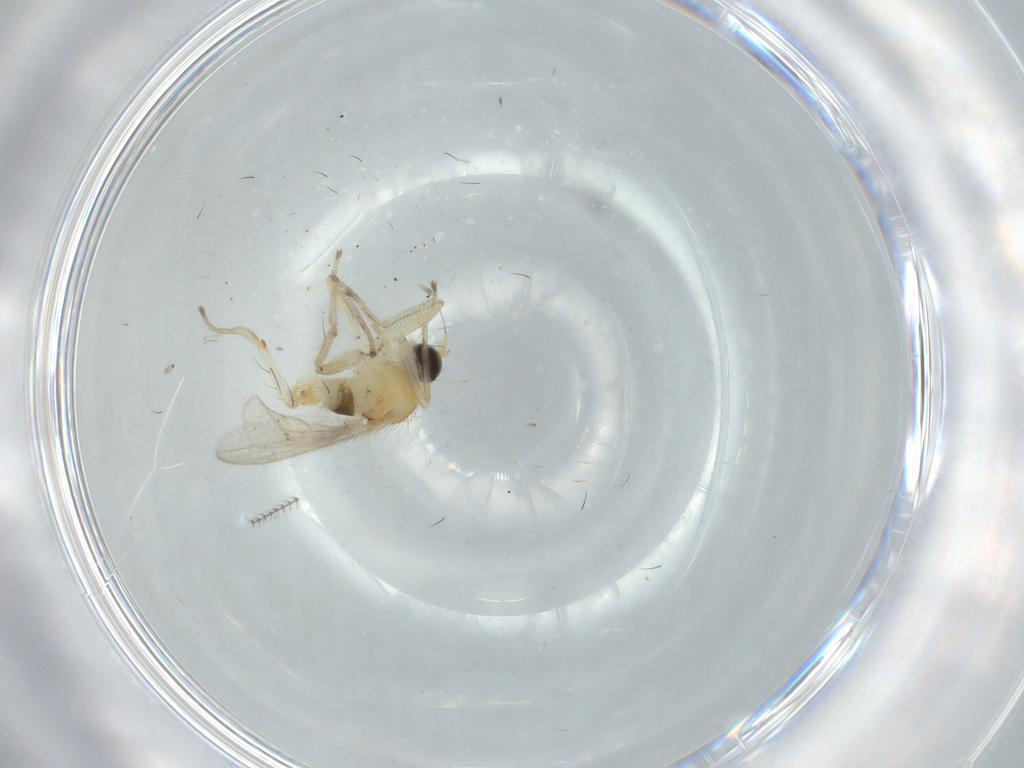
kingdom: Animalia
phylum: Arthropoda
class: Insecta
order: Diptera
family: Hybotidae
